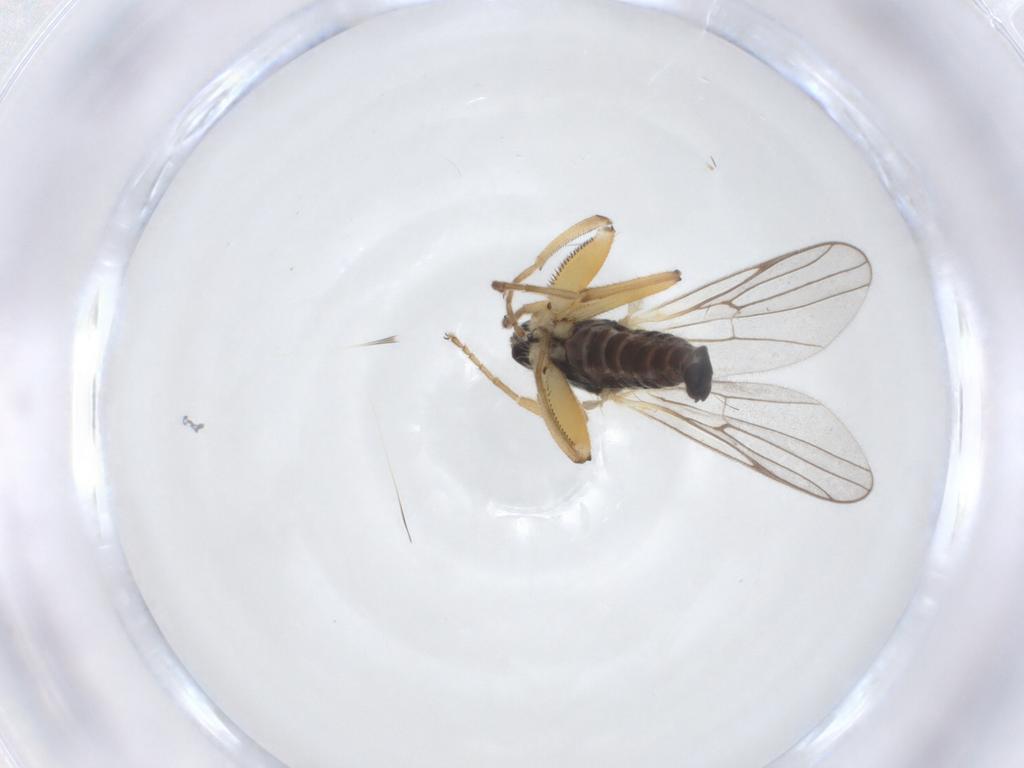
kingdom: Animalia
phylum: Arthropoda
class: Insecta
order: Diptera
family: Hybotidae
